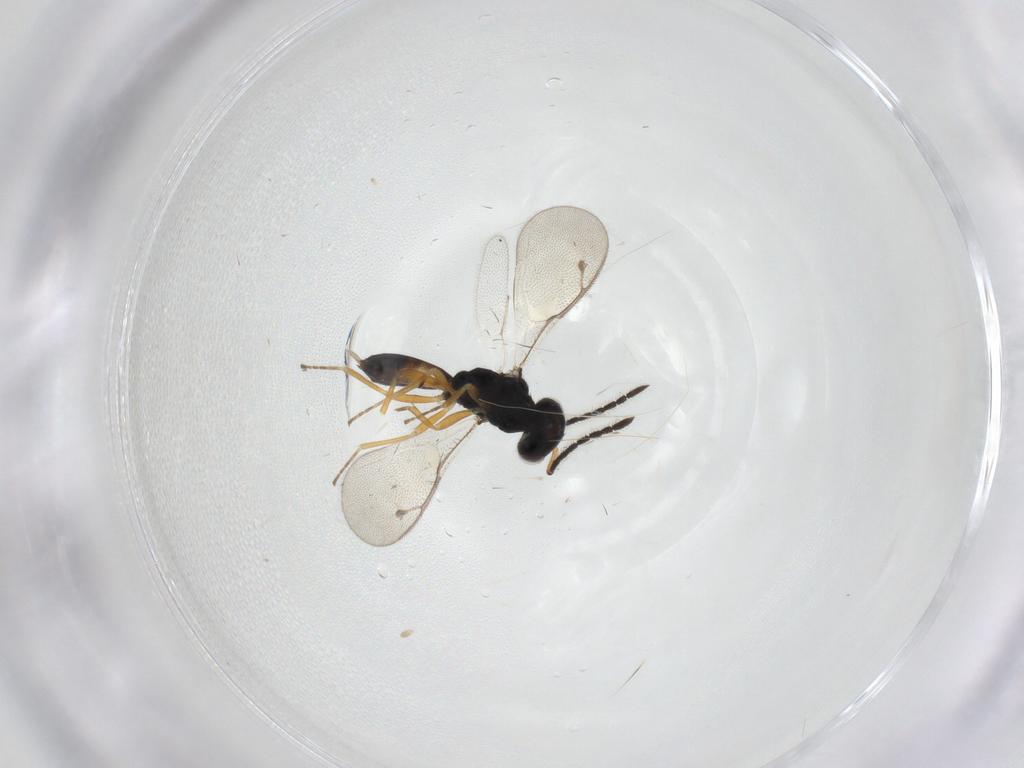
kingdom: Animalia
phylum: Arthropoda
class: Insecta
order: Hymenoptera
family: Pteromalidae
